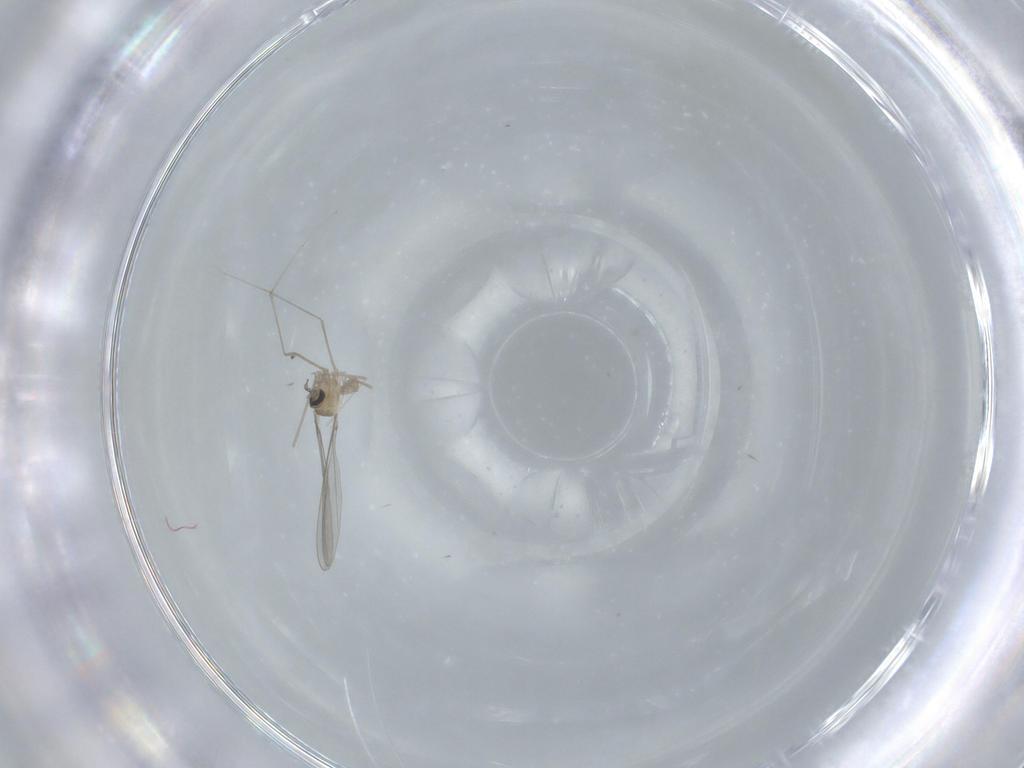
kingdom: Animalia
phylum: Arthropoda
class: Insecta
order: Diptera
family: Cecidomyiidae
